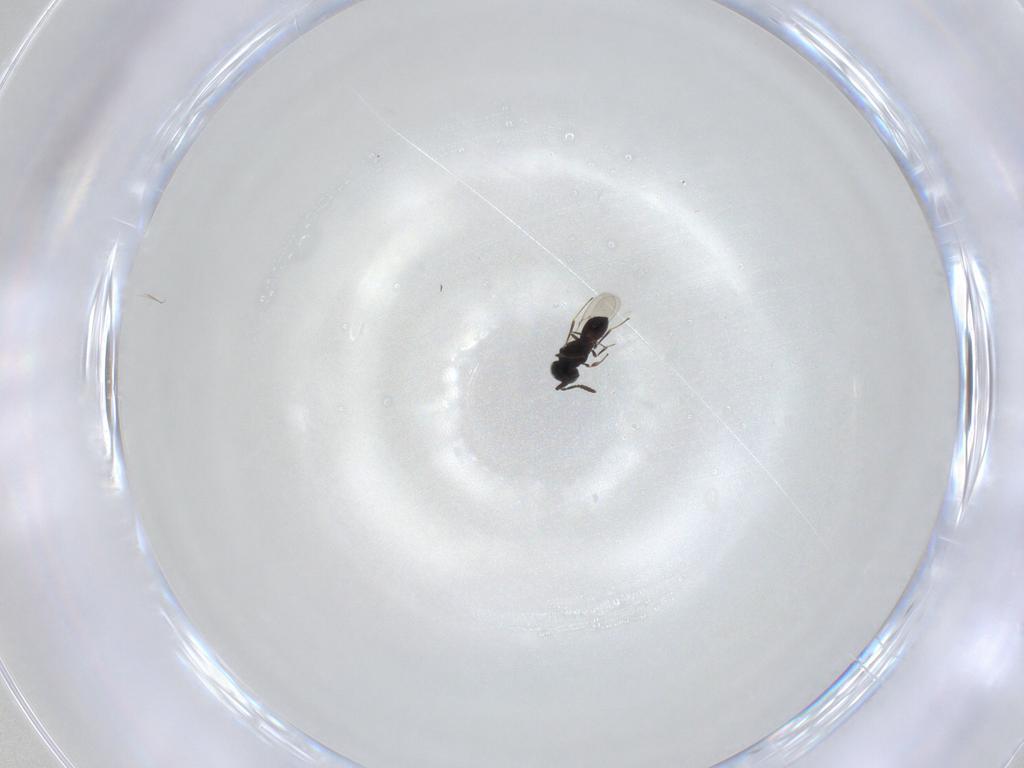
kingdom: Animalia
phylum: Arthropoda
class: Insecta
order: Hymenoptera
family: Scelionidae
